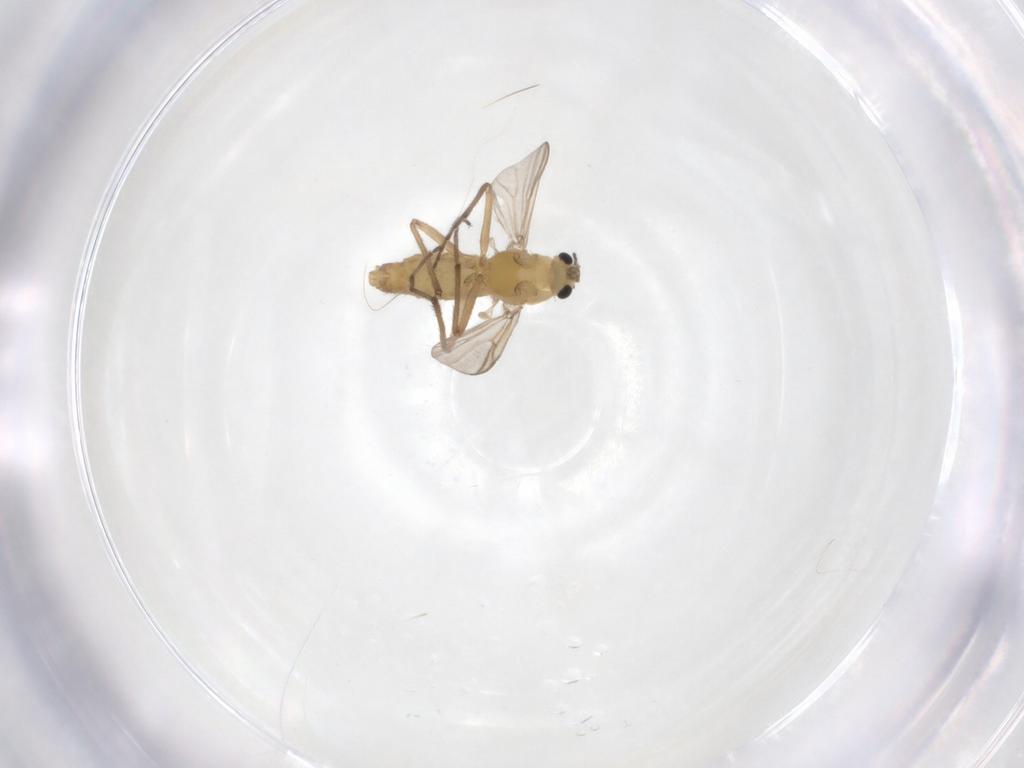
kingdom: Animalia
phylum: Arthropoda
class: Insecta
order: Diptera
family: Chironomidae
